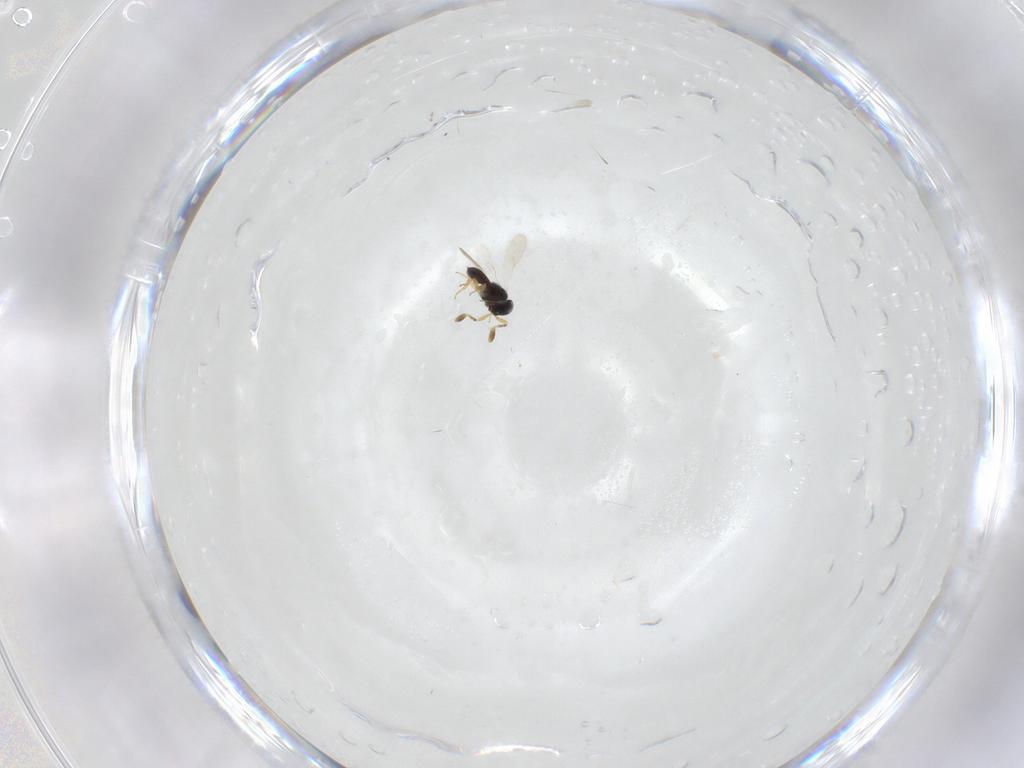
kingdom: Animalia
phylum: Arthropoda
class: Insecta
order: Hymenoptera
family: Scelionidae
